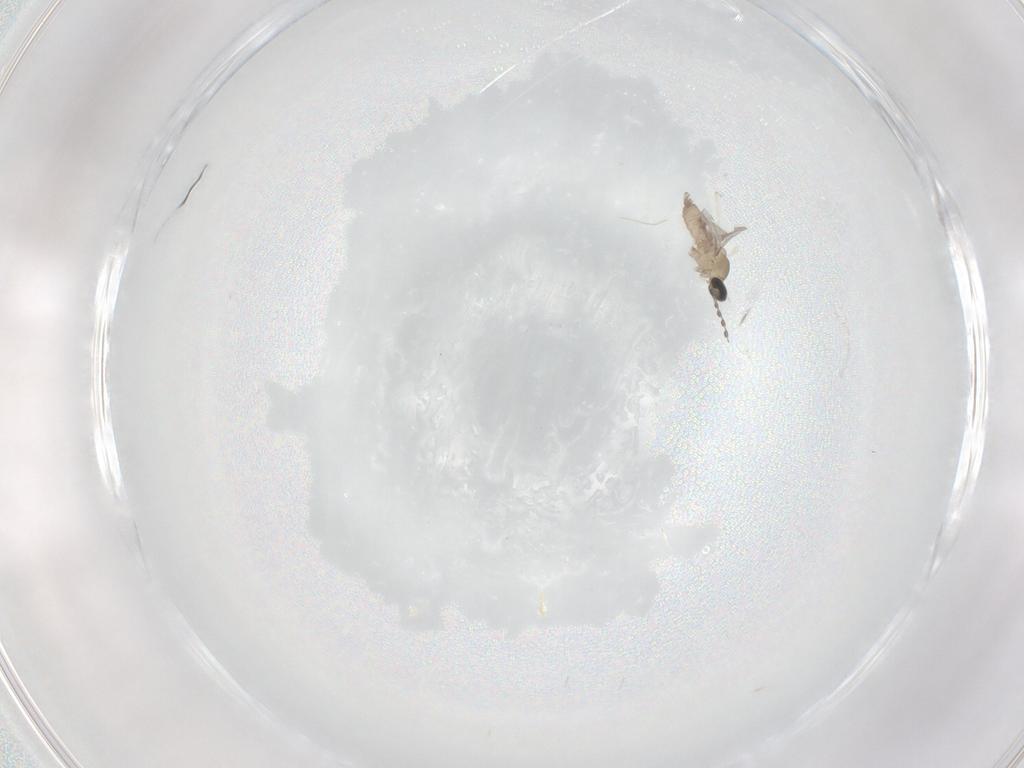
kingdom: Animalia
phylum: Arthropoda
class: Insecta
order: Diptera
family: Cecidomyiidae
